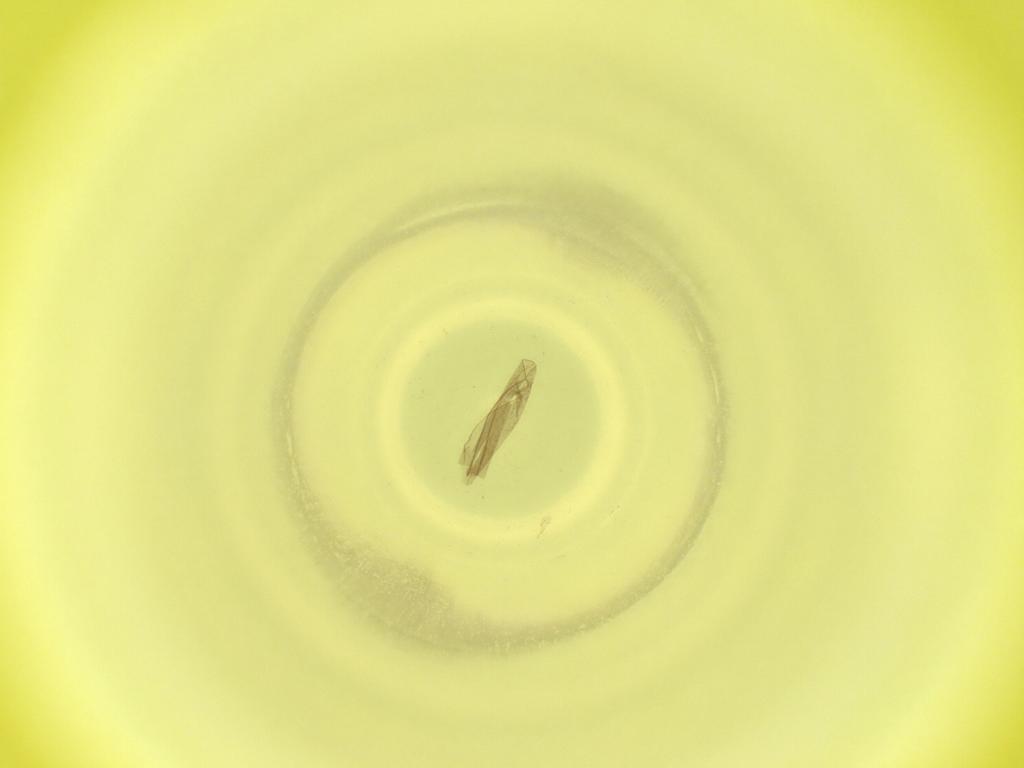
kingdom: Animalia
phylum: Arthropoda
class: Insecta
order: Diptera
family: Cecidomyiidae
